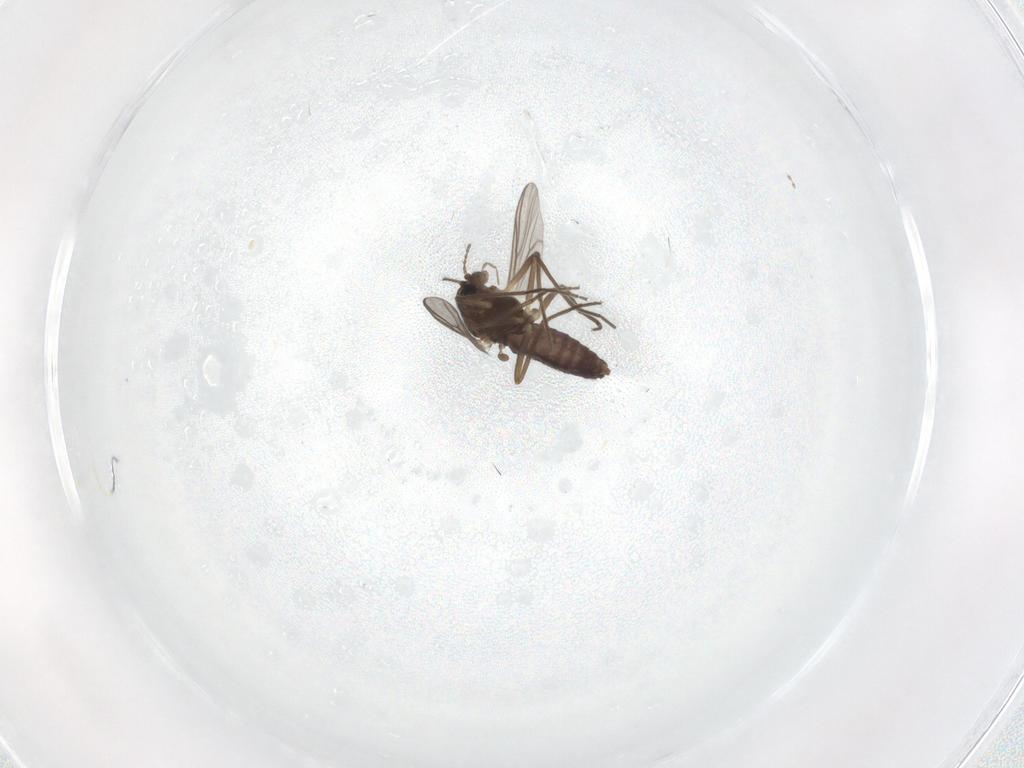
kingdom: Animalia
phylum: Arthropoda
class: Insecta
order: Diptera
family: Chironomidae
